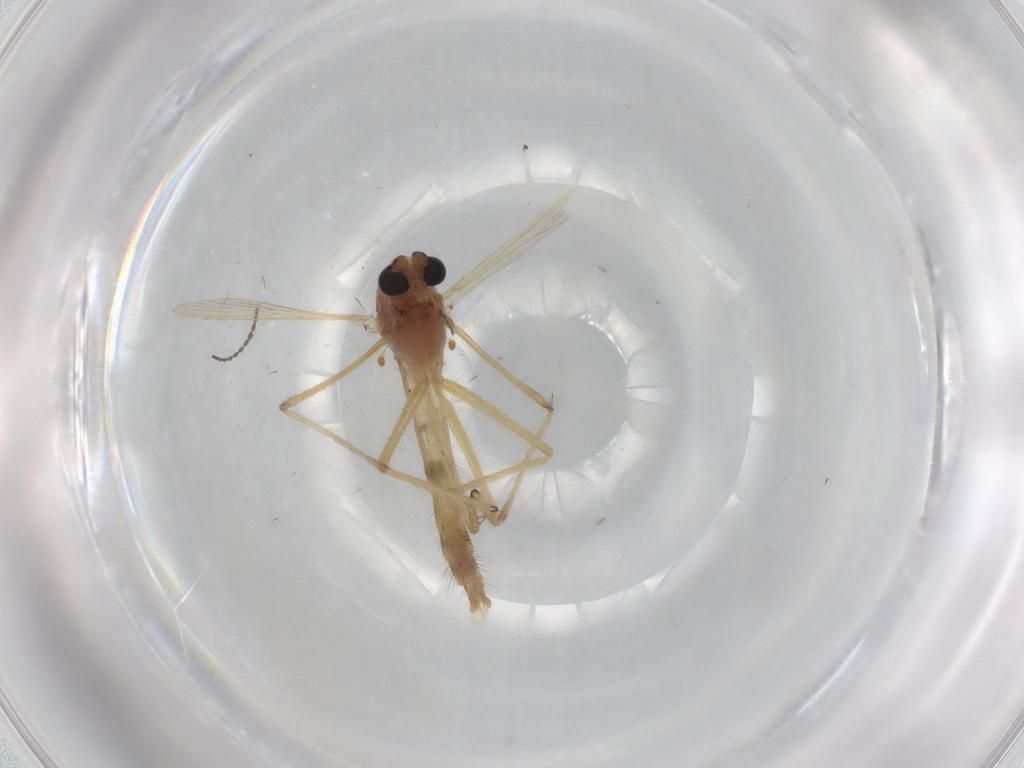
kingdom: Animalia
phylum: Arthropoda
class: Insecta
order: Diptera
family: Chironomidae
